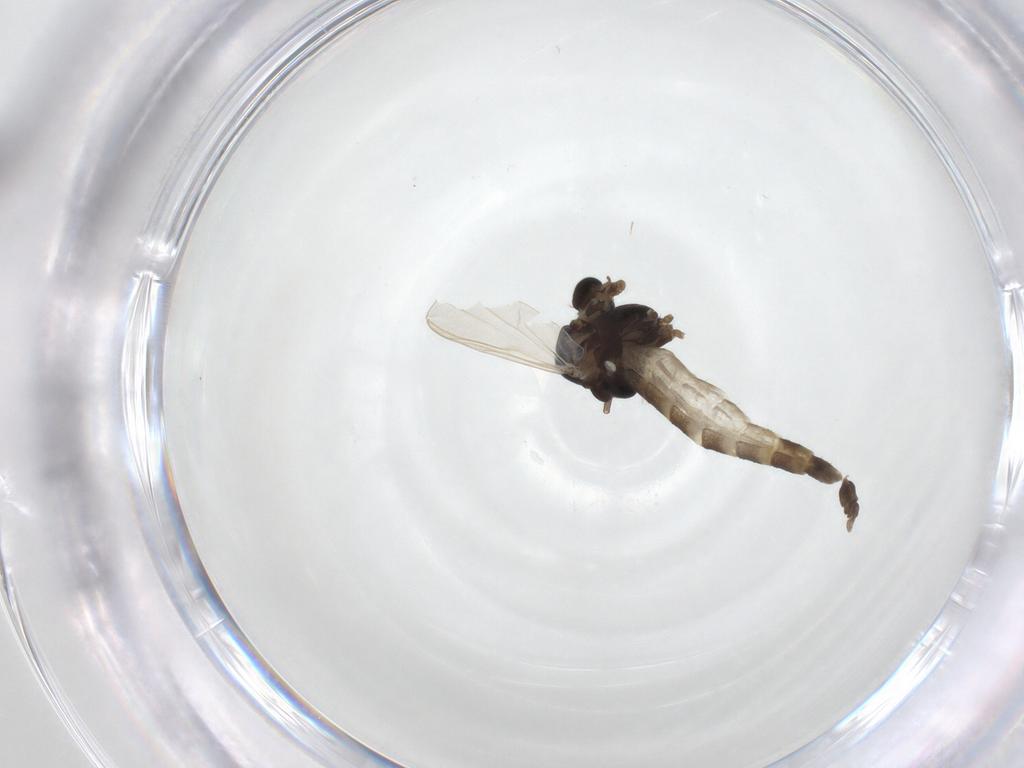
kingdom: Animalia
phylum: Arthropoda
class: Insecta
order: Diptera
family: Chironomidae
